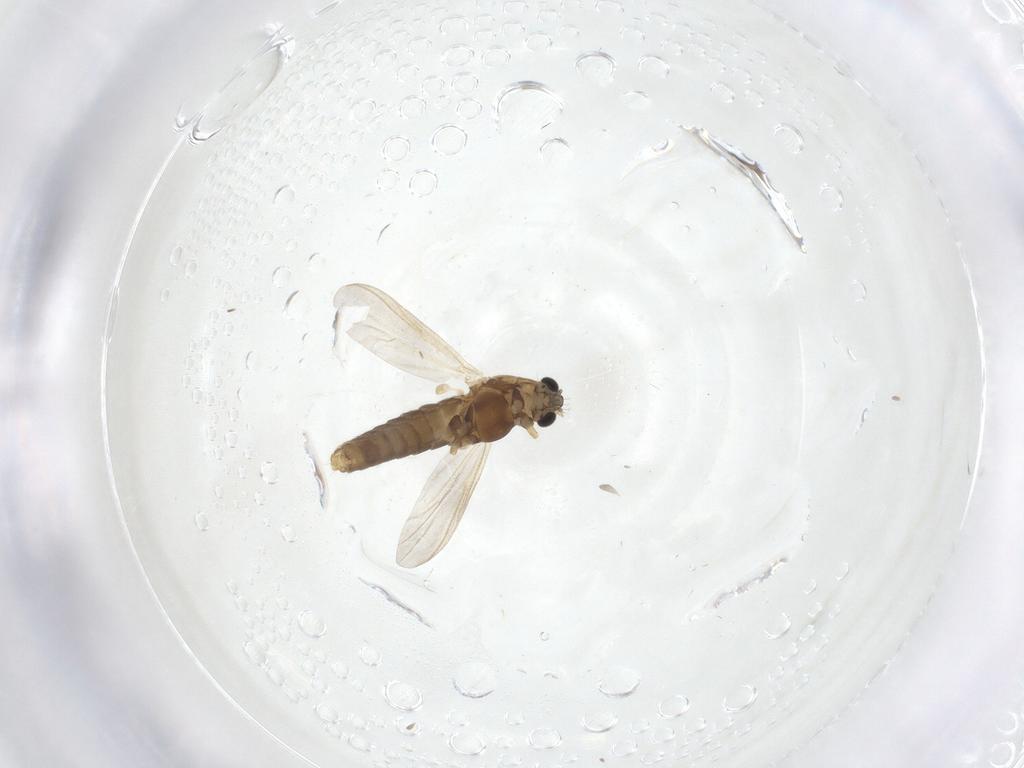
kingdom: Animalia
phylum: Arthropoda
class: Insecta
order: Diptera
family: Chironomidae
